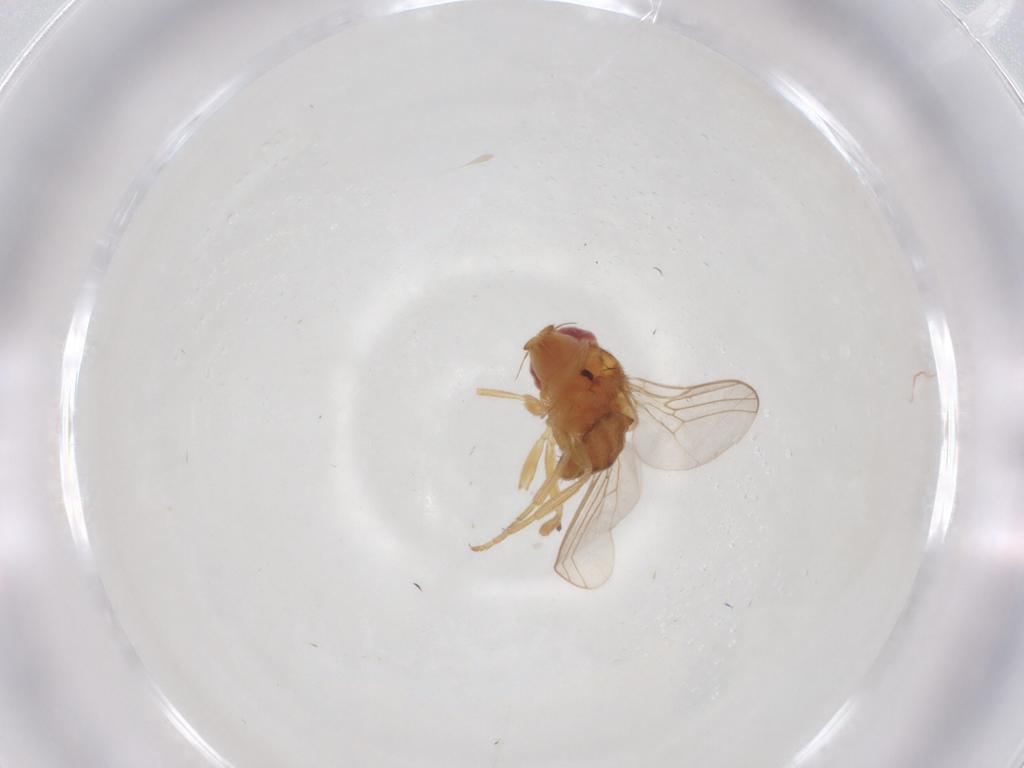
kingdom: Animalia
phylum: Arthropoda
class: Insecta
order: Diptera
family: Chloropidae
